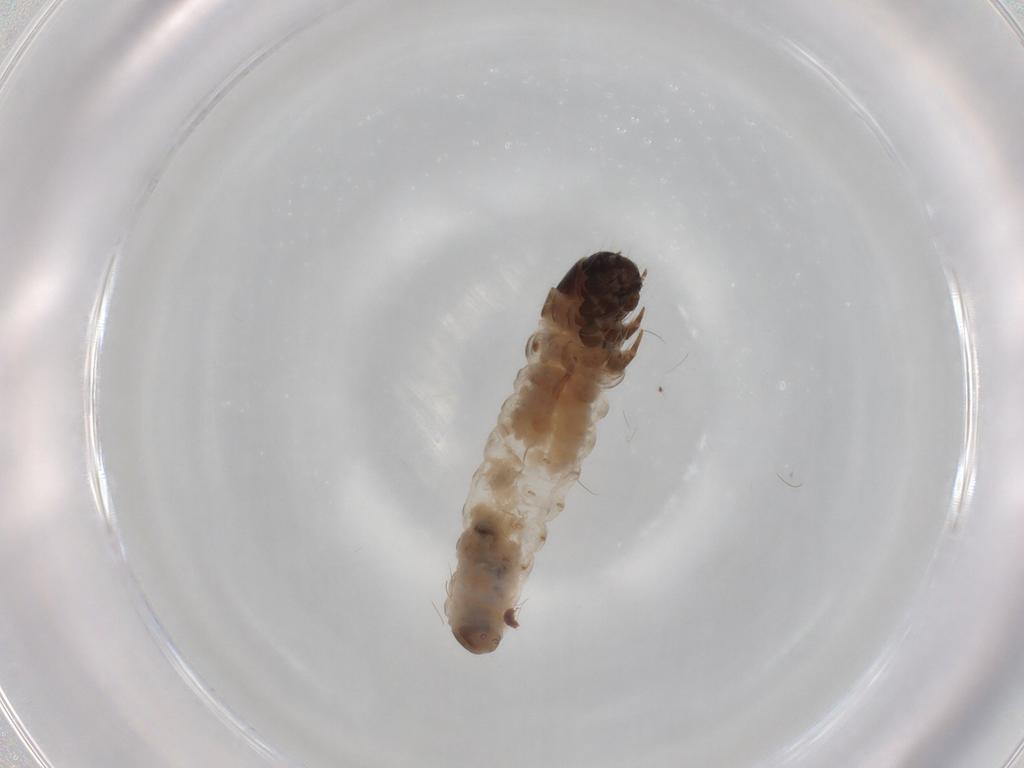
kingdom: Animalia
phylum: Arthropoda
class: Insecta
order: Lepidoptera
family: Psychidae
